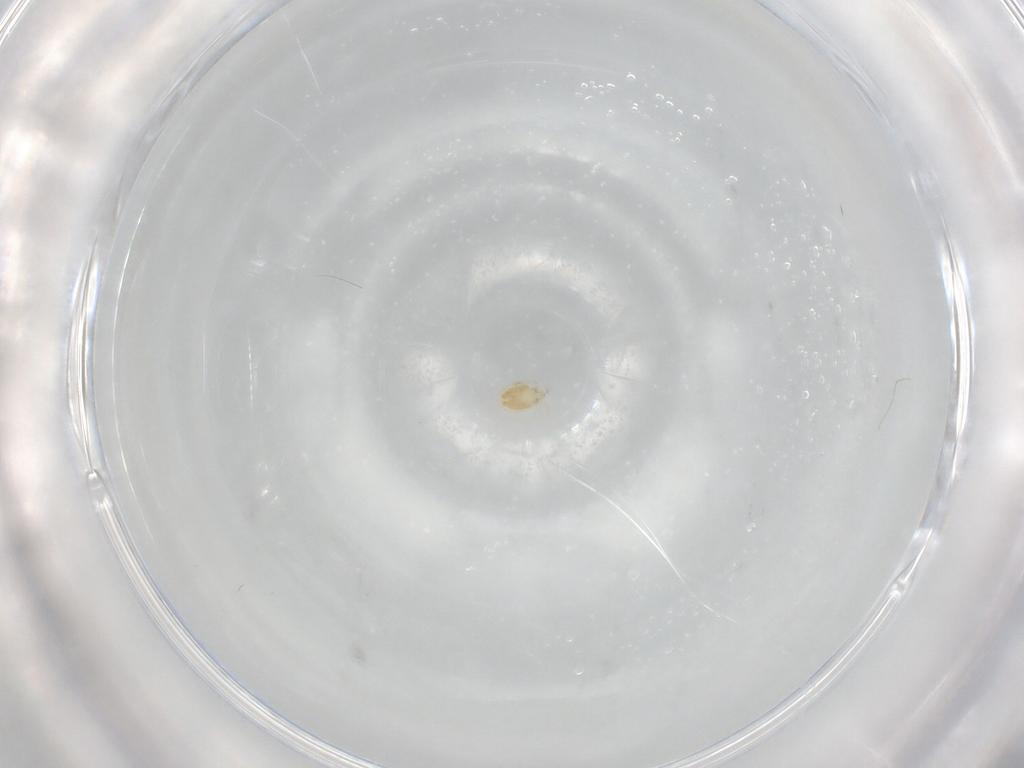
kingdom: Animalia
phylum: Arthropoda
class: Arachnida
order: Trombidiformes
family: Hygrobatidae
